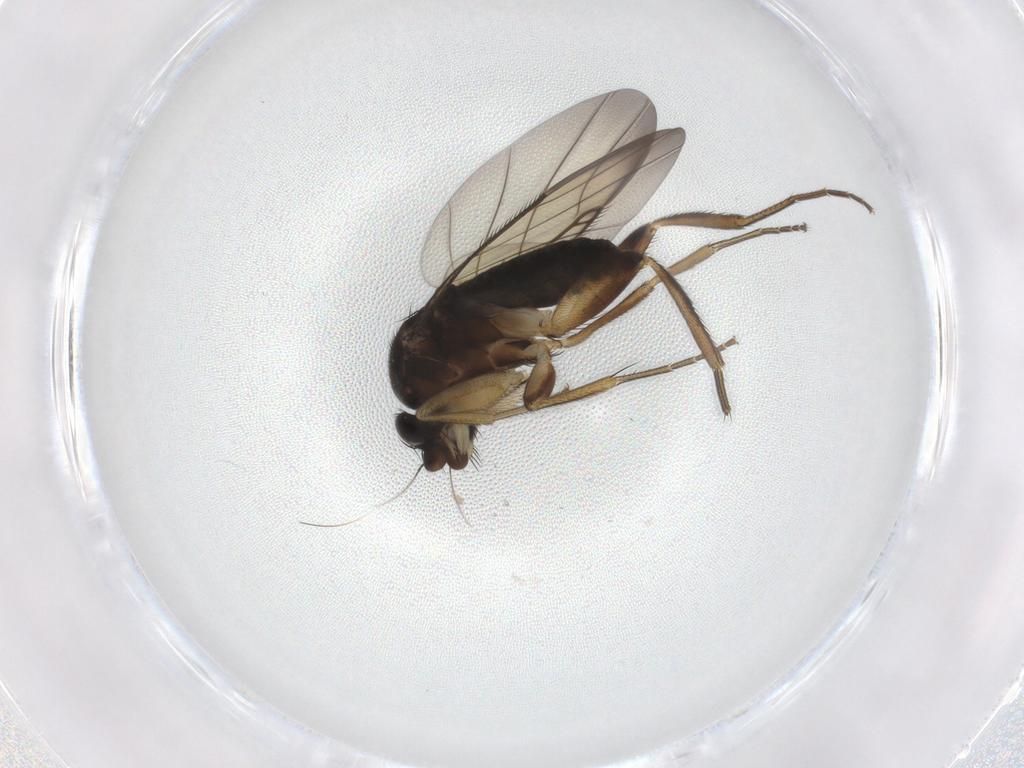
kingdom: Animalia
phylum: Arthropoda
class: Insecta
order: Diptera
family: Phoridae
